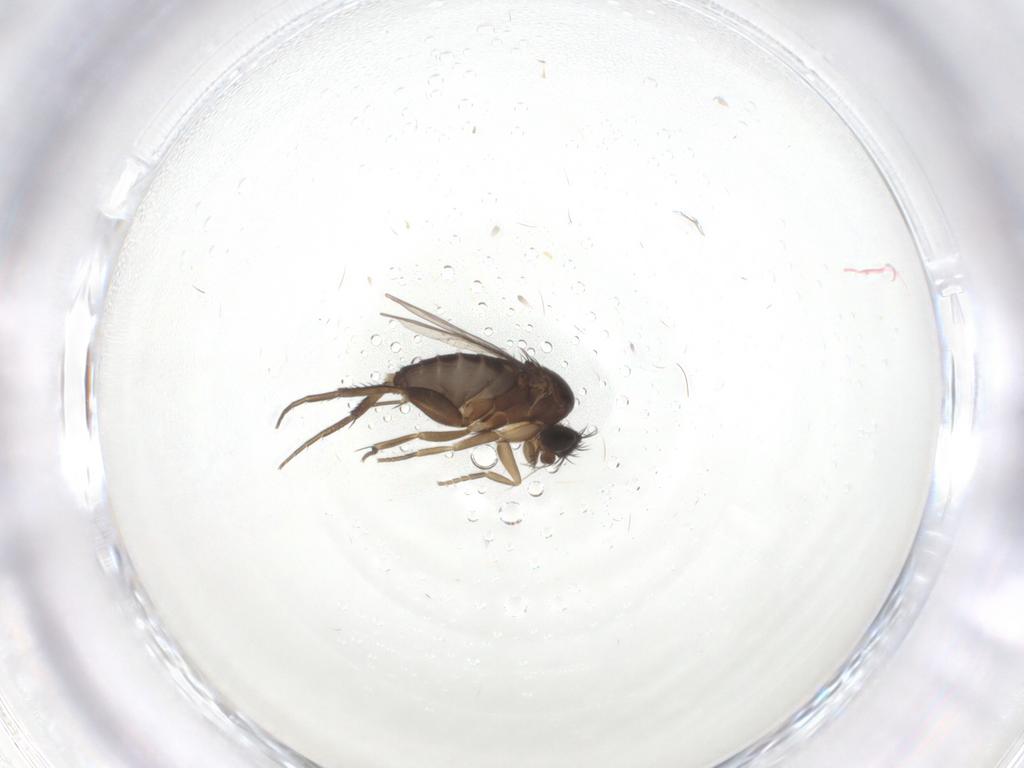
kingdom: Animalia
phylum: Arthropoda
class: Insecta
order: Diptera
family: Phoridae
